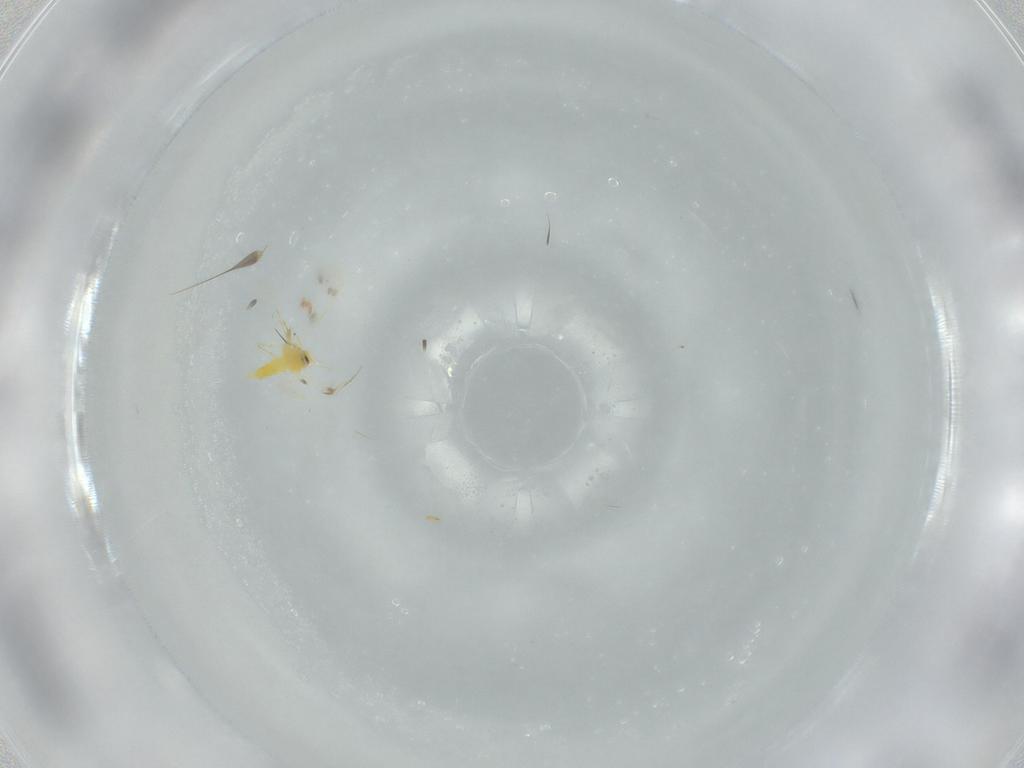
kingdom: Animalia
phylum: Arthropoda
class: Insecta
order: Hemiptera
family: Aleyrodidae
